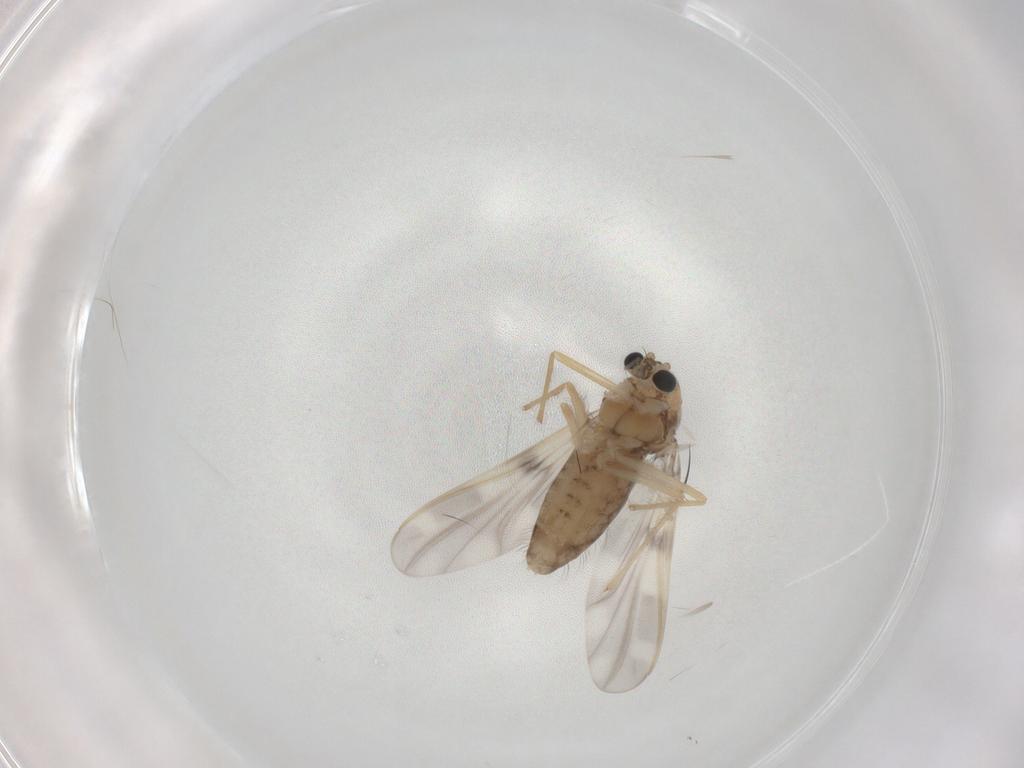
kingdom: Animalia
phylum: Arthropoda
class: Insecta
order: Diptera
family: Chironomidae
